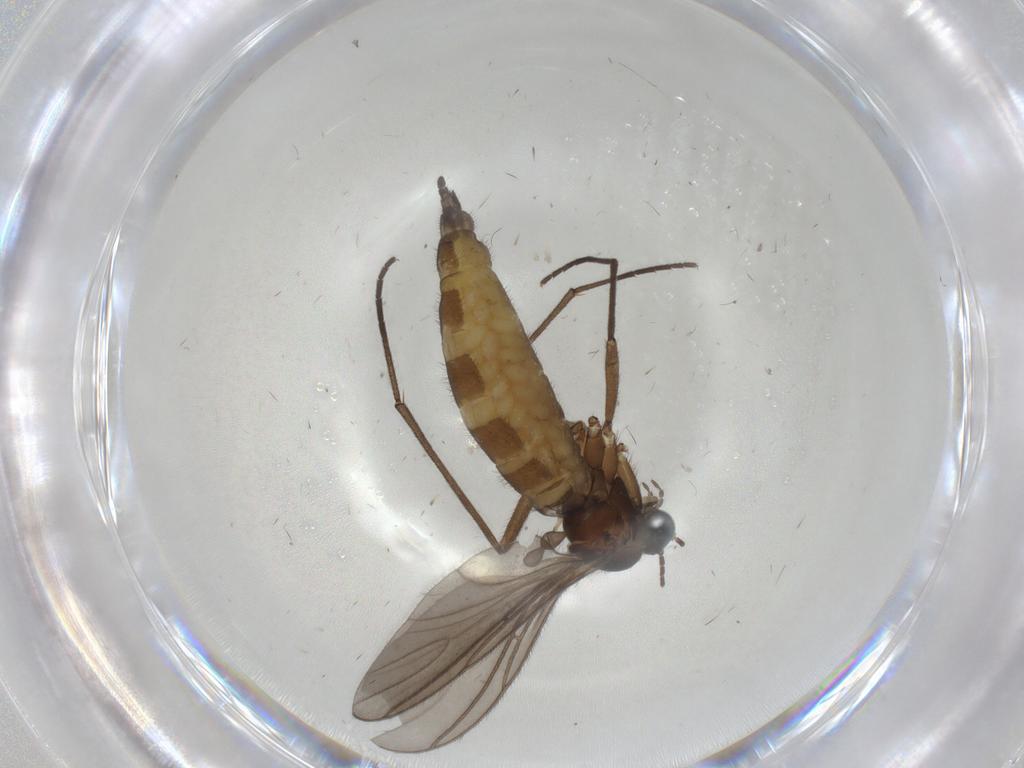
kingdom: Animalia
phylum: Arthropoda
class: Insecta
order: Diptera
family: Sciaridae
